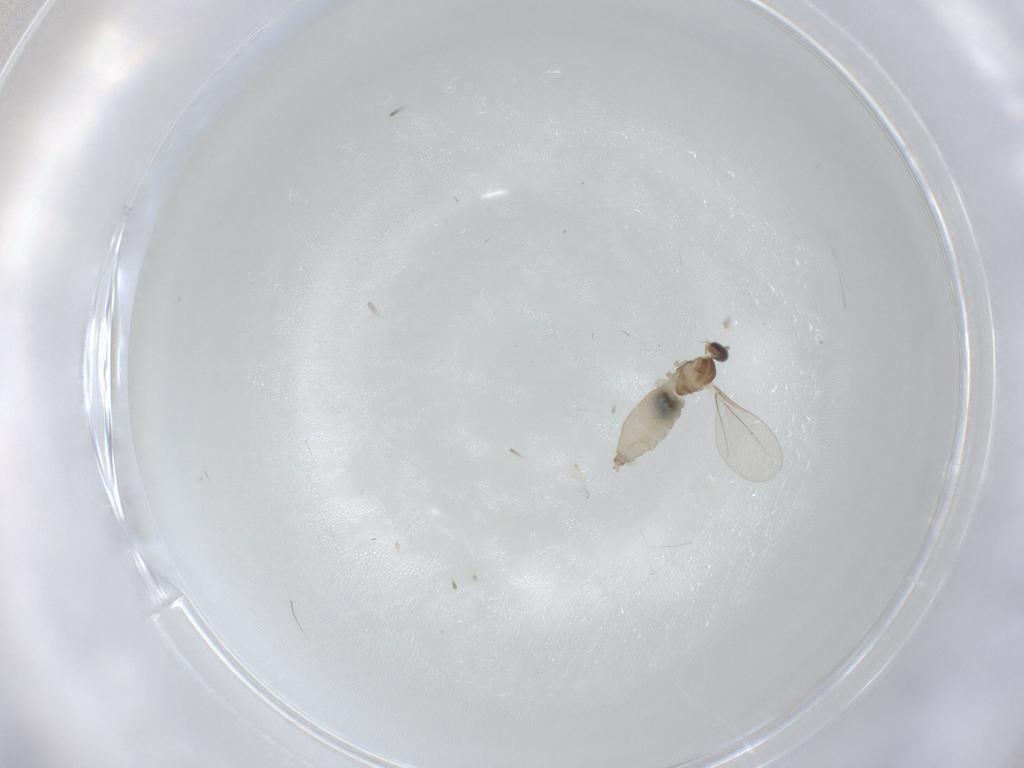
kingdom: Animalia
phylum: Arthropoda
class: Insecta
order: Diptera
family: Cecidomyiidae
